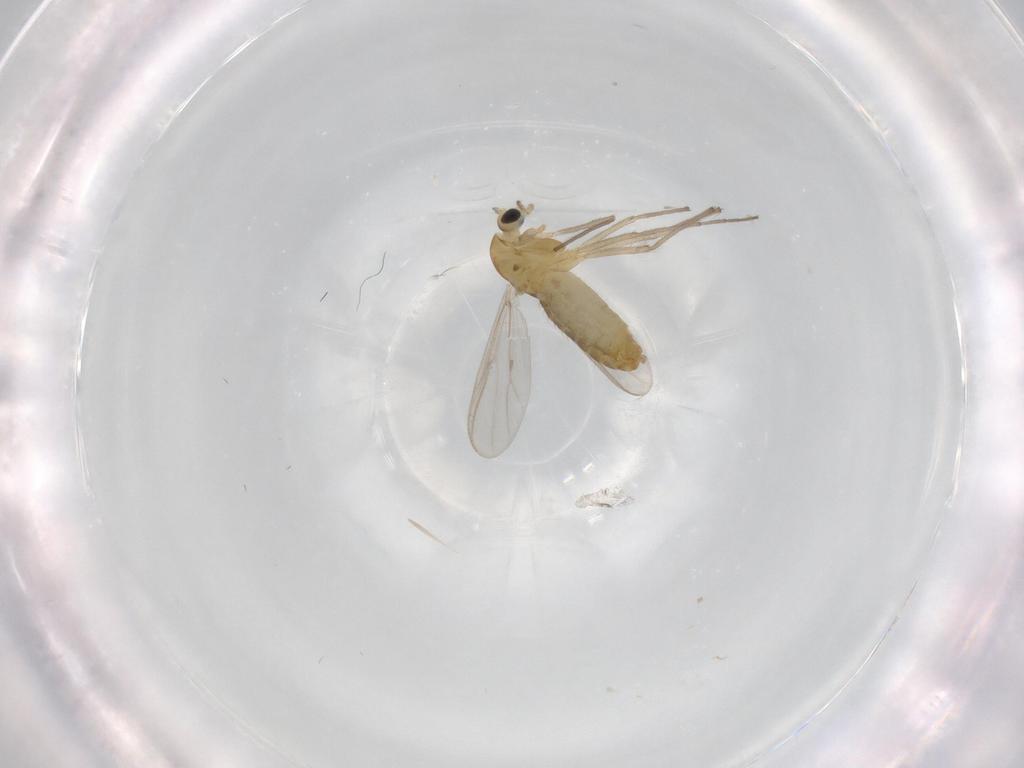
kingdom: Animalia
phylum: Arthropoda
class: Insecta
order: Diptera
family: Chironomidae
